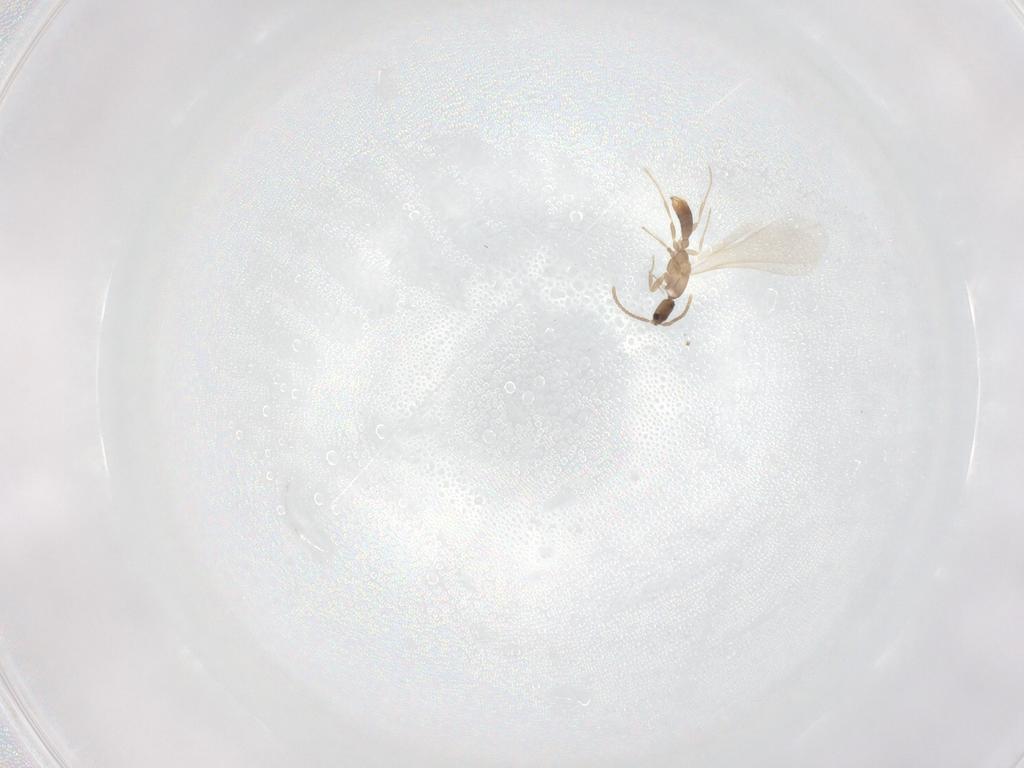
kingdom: Animalia
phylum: Arthropoda
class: Insecta
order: Hymenoptera
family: Formicidae
